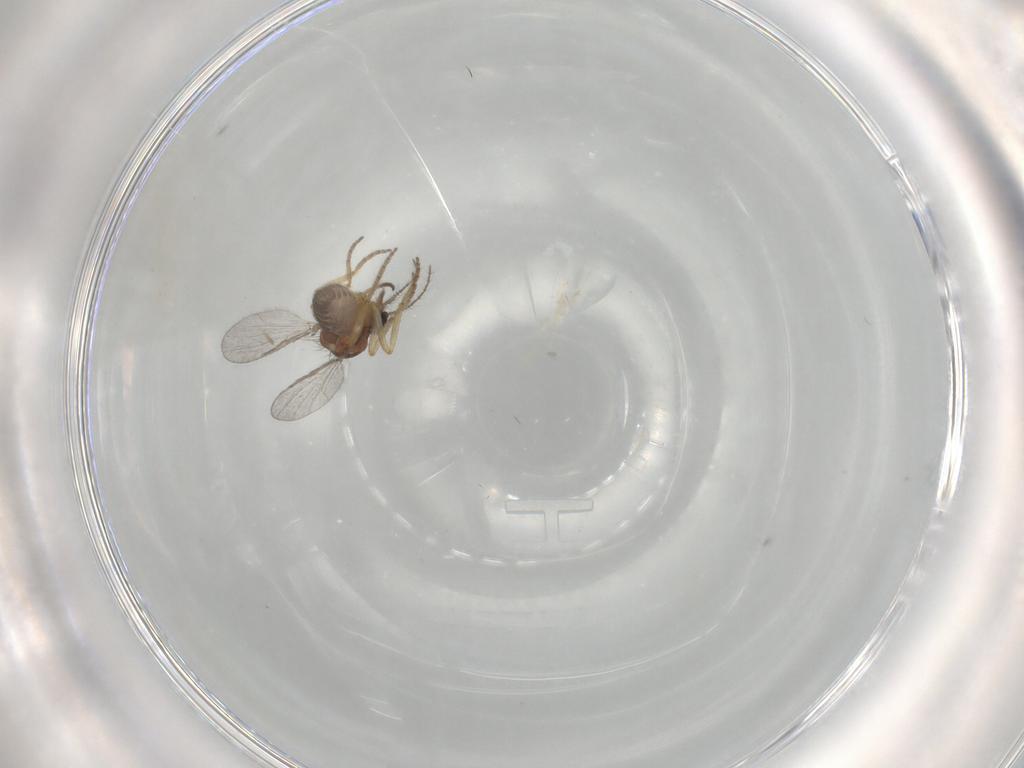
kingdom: Animalia
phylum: Arthropoda
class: Insecta
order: Diptera
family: Ceratopogonidae
